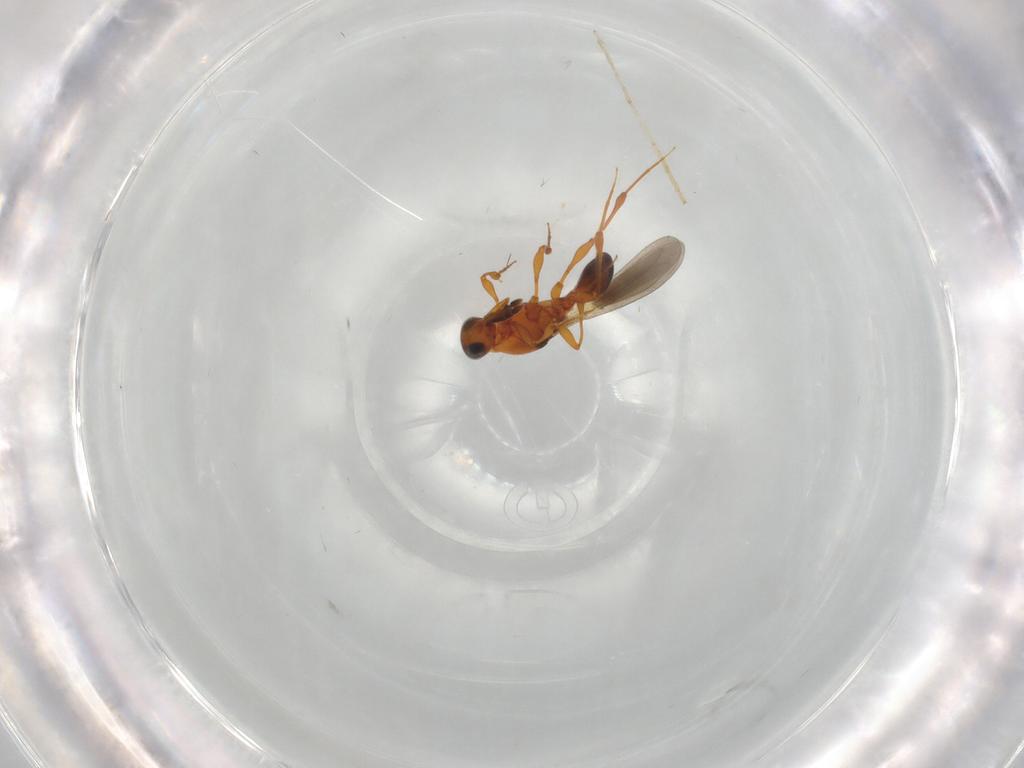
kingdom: Animalia
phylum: Arthropoda
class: Insecta
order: Hymenoptera
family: Platygastridae
